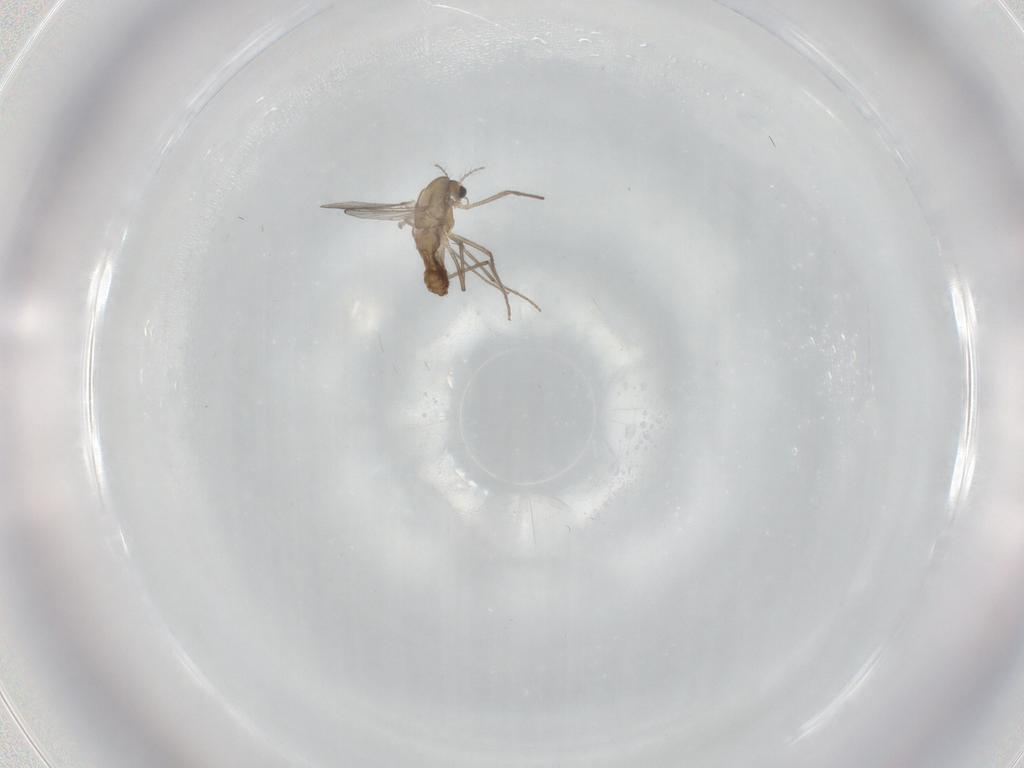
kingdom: Animalia
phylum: Arthropoda
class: Insecta
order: Diptera
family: Chironomidae
